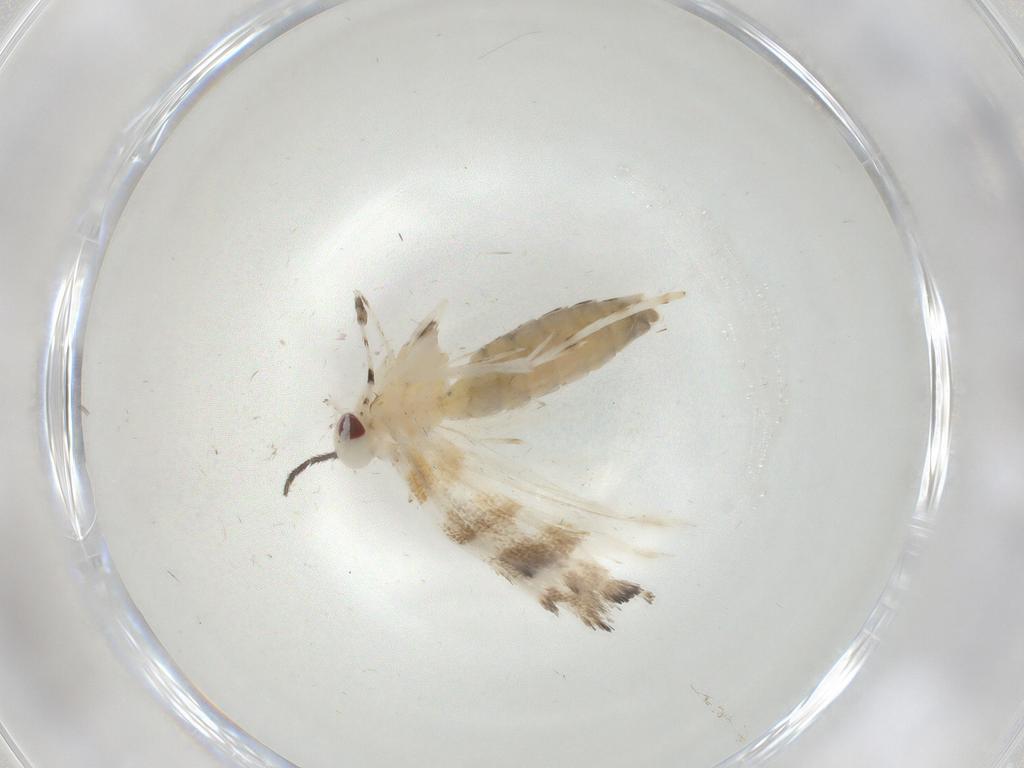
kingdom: Animalia
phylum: Arthropoda
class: Insecta
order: Lepidoptera
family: Gracillariidae
